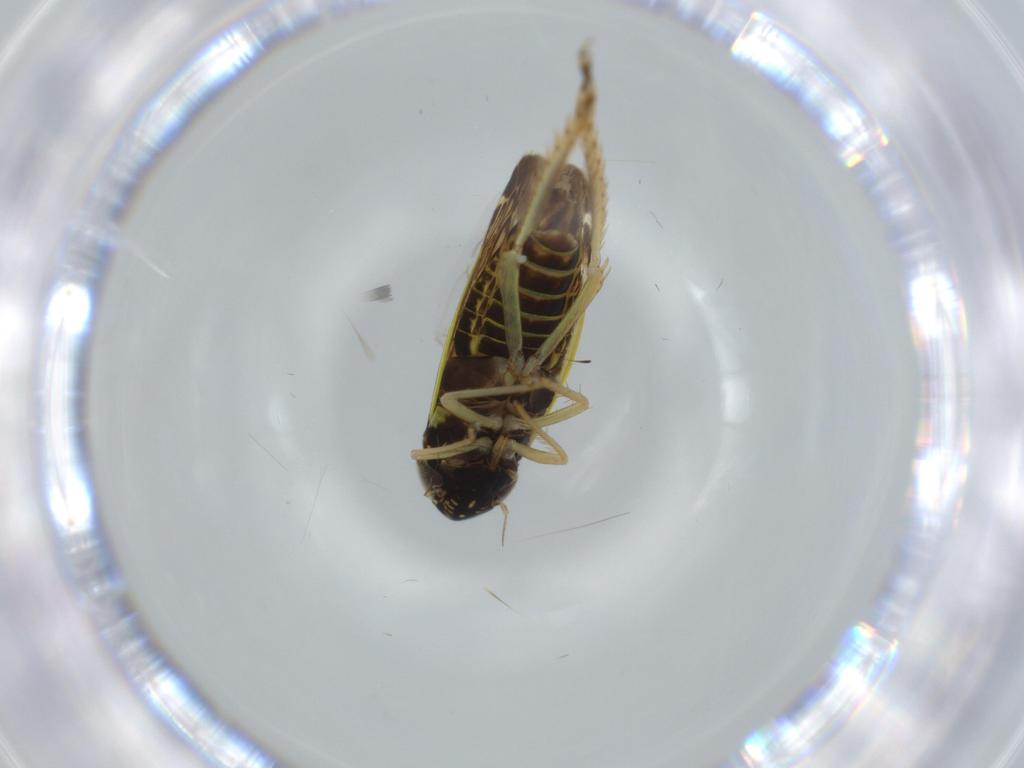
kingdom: Animalia
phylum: Arthropoda
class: Insecta
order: Hemiptera
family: Cicadellidae
